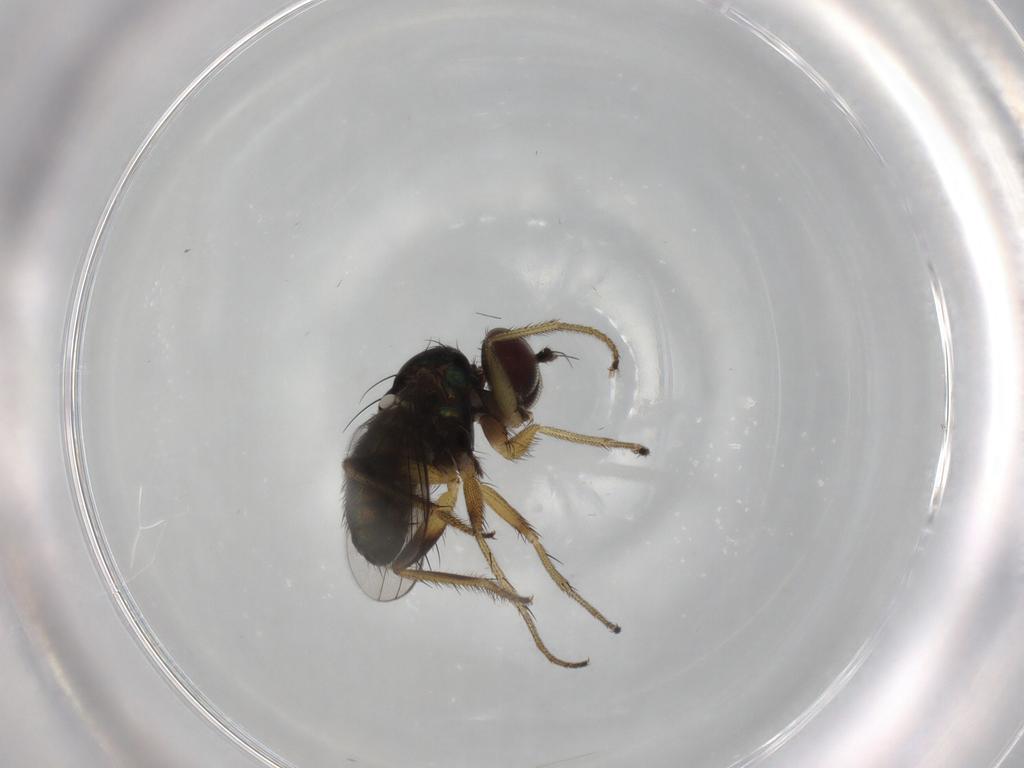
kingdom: Animalia
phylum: Arthropoda
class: Insecta
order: Diptera
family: Dolichopodidae
